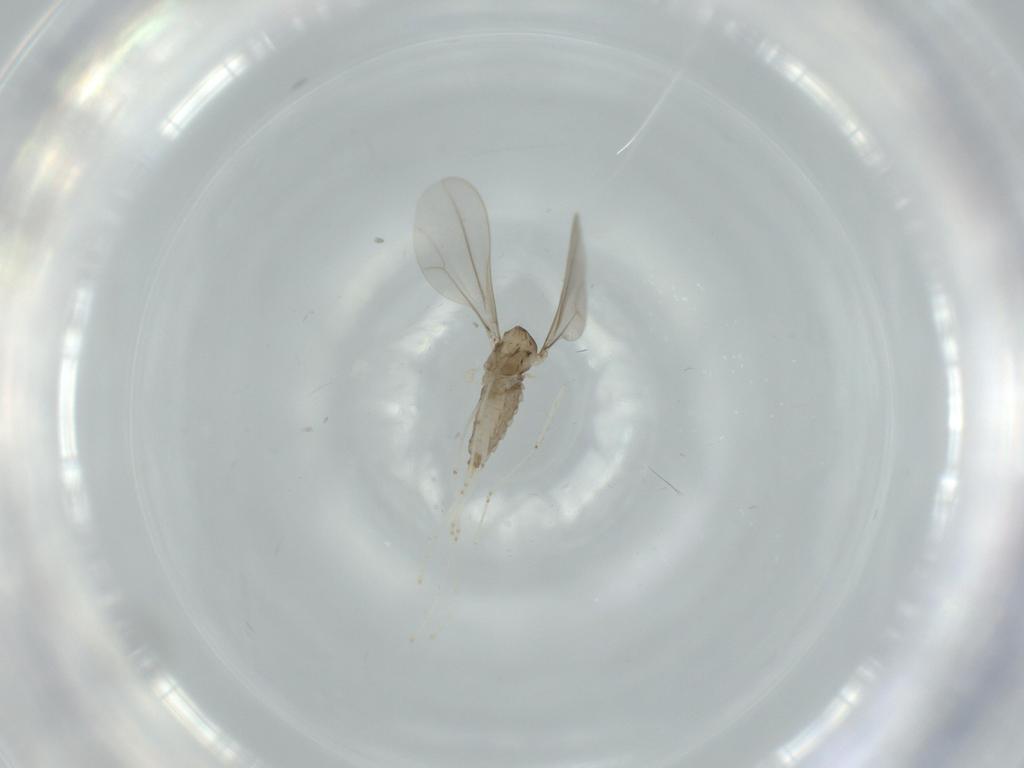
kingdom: Animalia
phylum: Arthropoda
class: Insecta
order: Diptera
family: Cecidomyiidae
